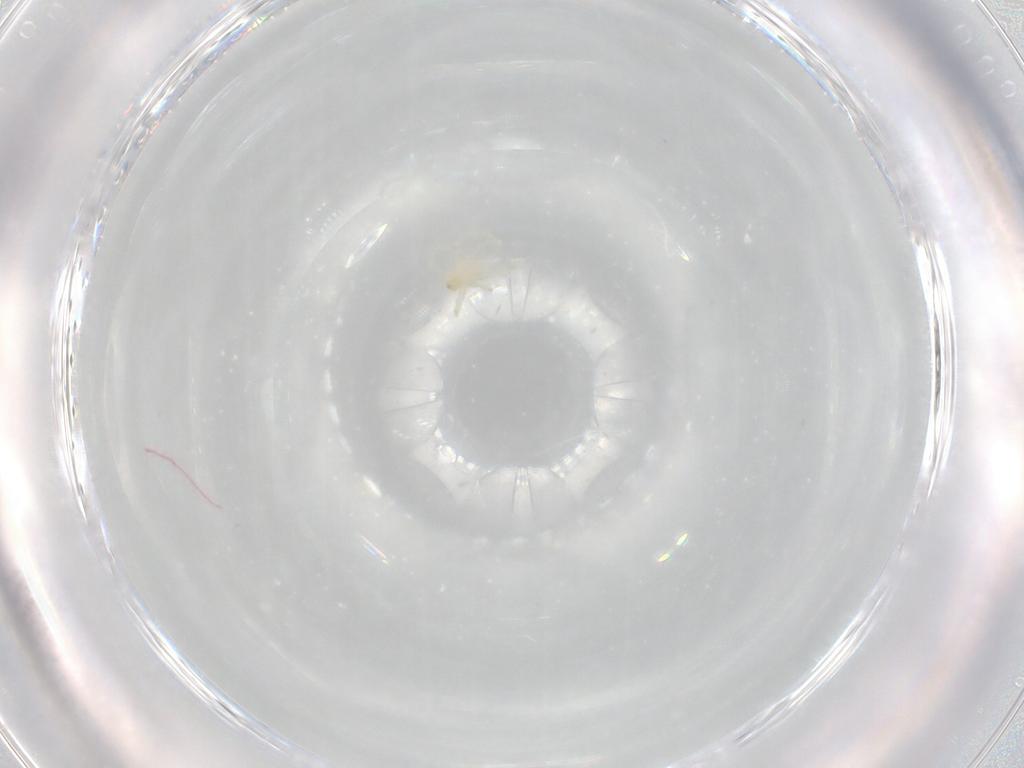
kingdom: Animalia
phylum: Arthropoda
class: Arachnida
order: Trombidiformes
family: Erythraeidae
